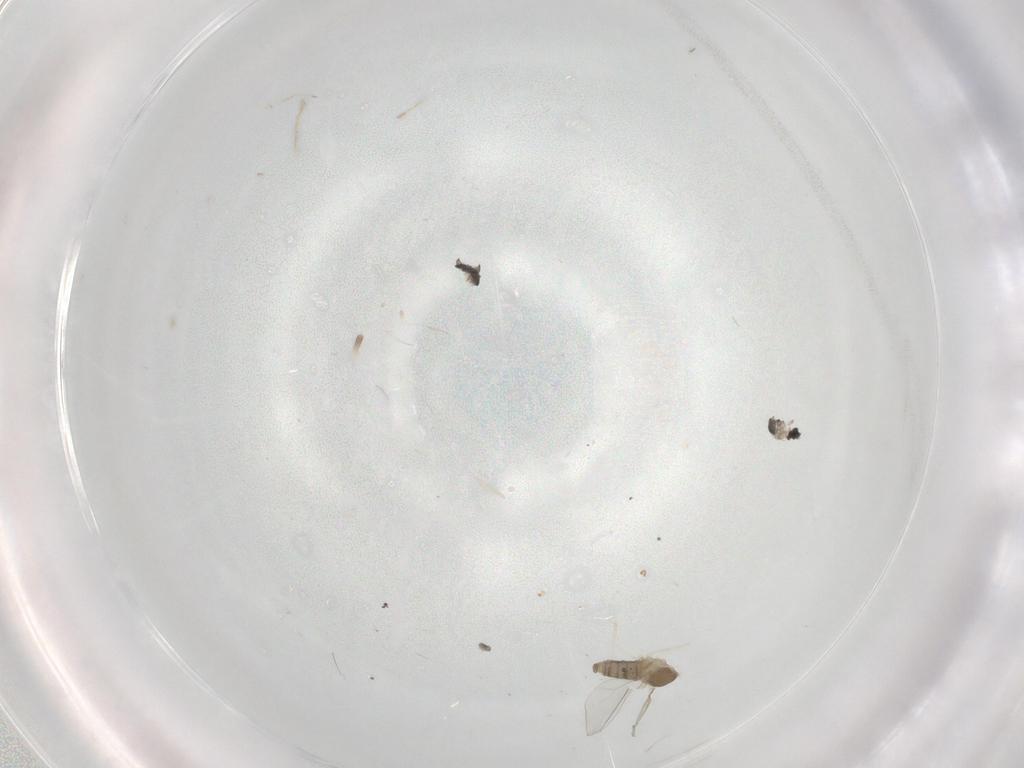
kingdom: Animalia
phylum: Arthropoda
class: Insecta
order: Diptera
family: Cecidomyiidae
